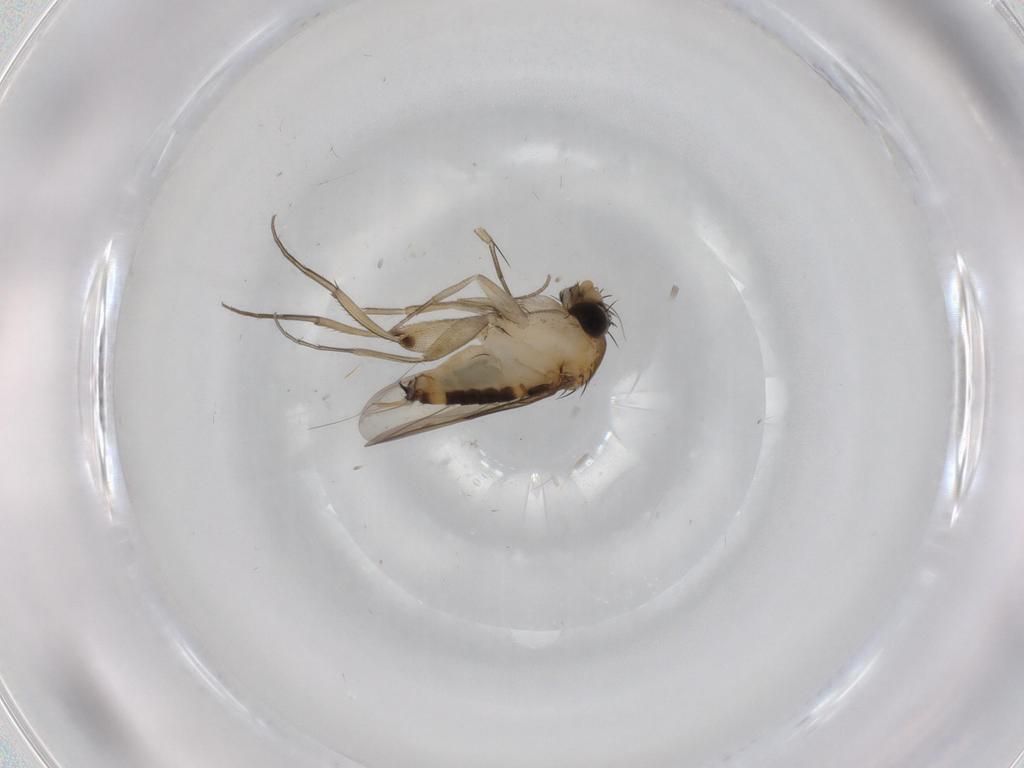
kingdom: Animalia
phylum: Arthropoda
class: Insecta
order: Diptera
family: Phoridae
